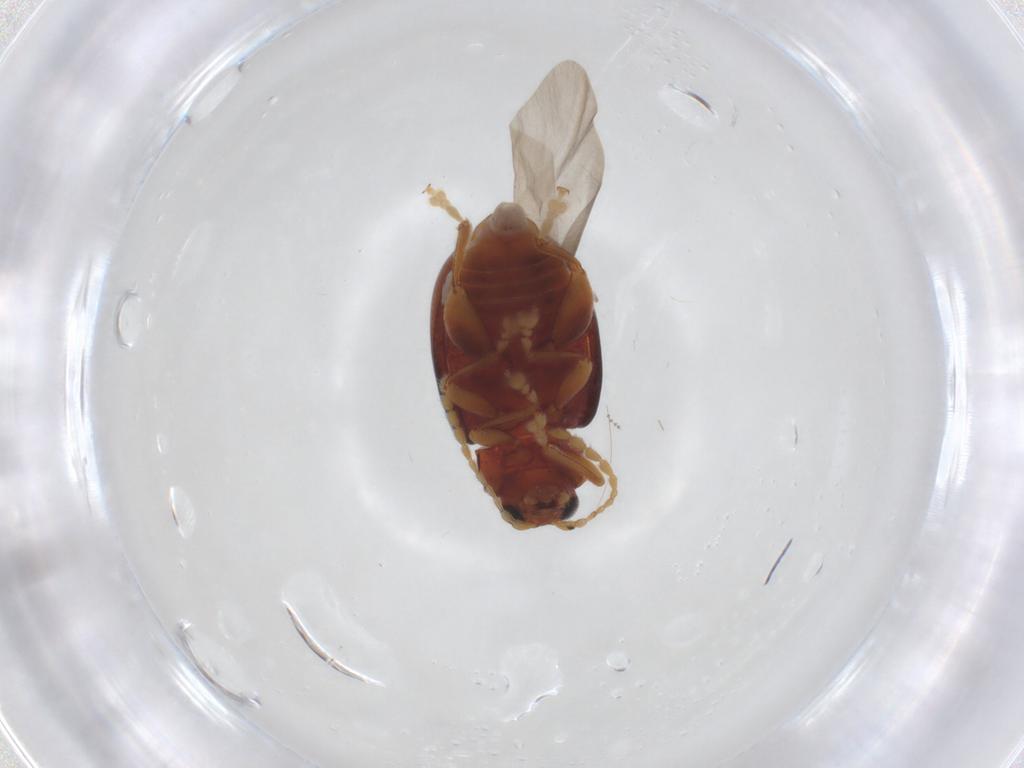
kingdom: Animalia
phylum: Arthropoda
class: Insecta
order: Coleoptera
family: Chrysomelidae
